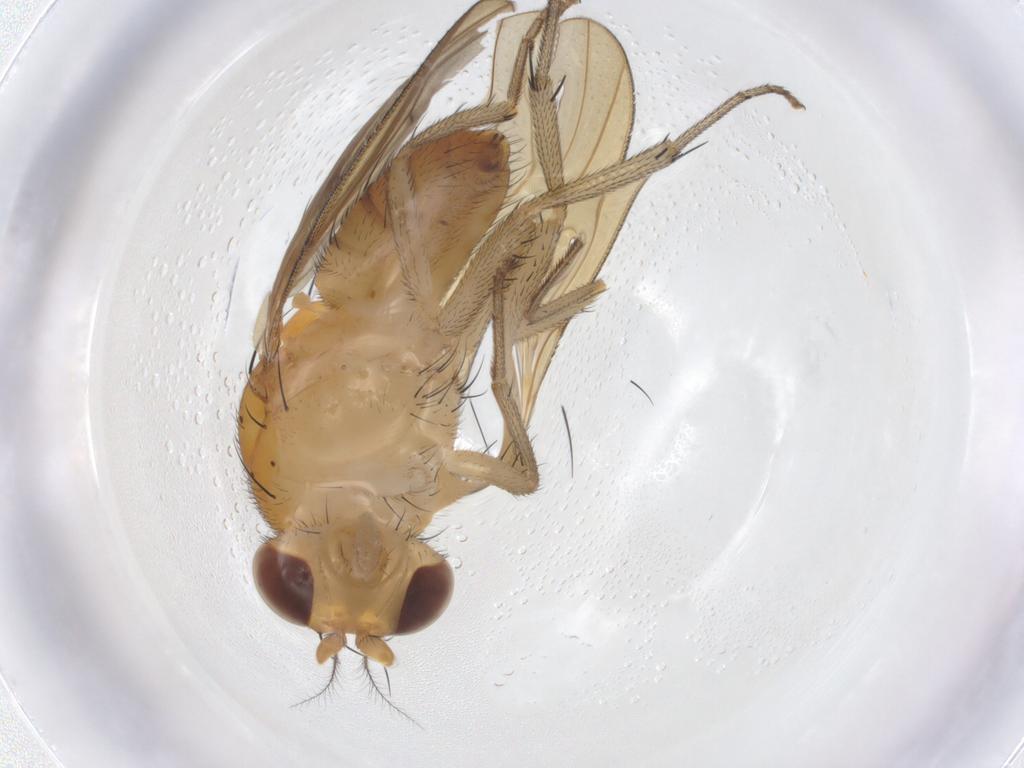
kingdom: Animalia
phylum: Arthropoda
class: Insecta
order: Diptera
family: Lauxaniidae
